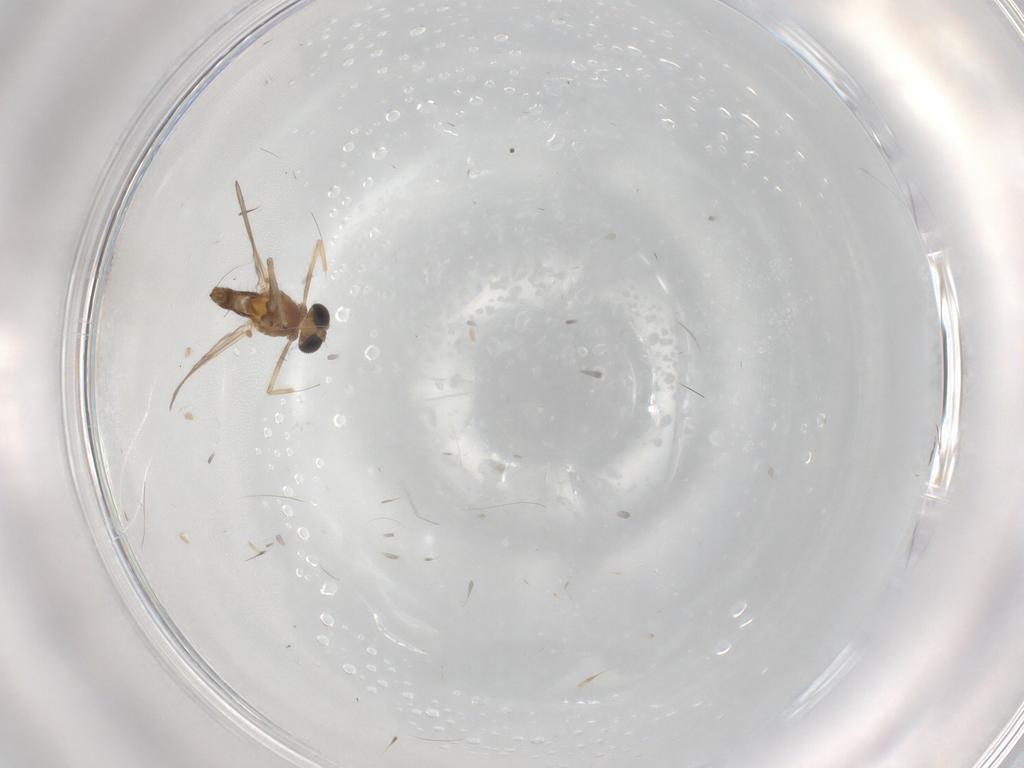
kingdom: Animalia
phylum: Arthropoda
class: Insecta
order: Diptera
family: Chironomidae
